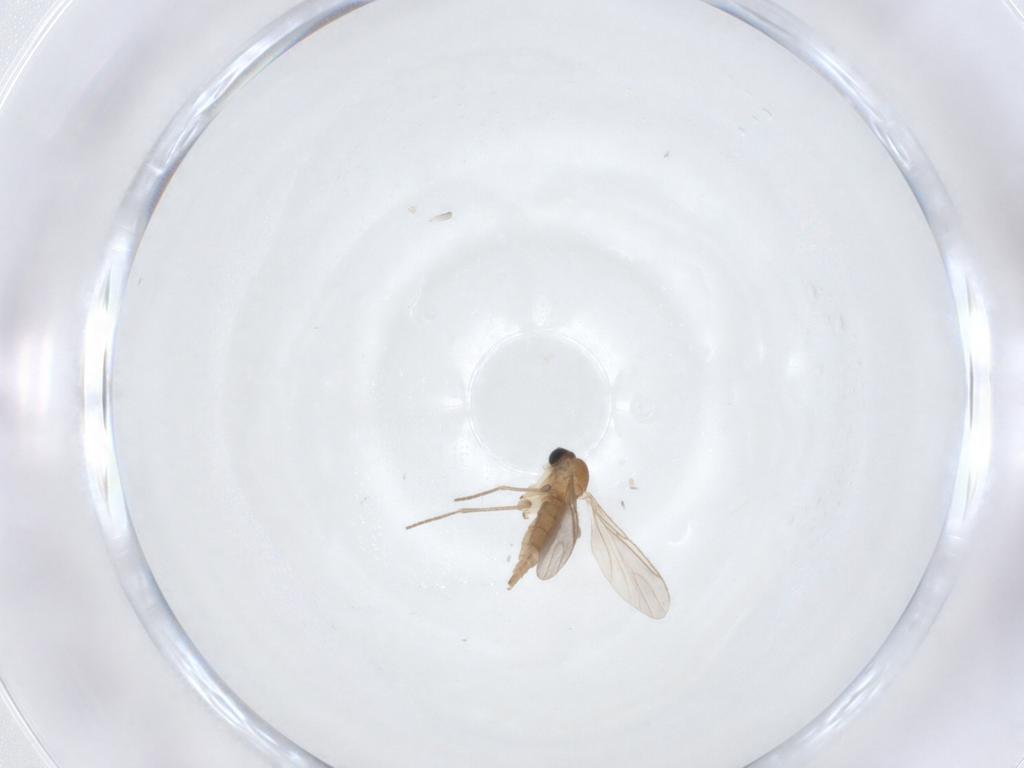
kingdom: Animalia
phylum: Arthropoda
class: Insecta
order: Diptera
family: Sciaridae
